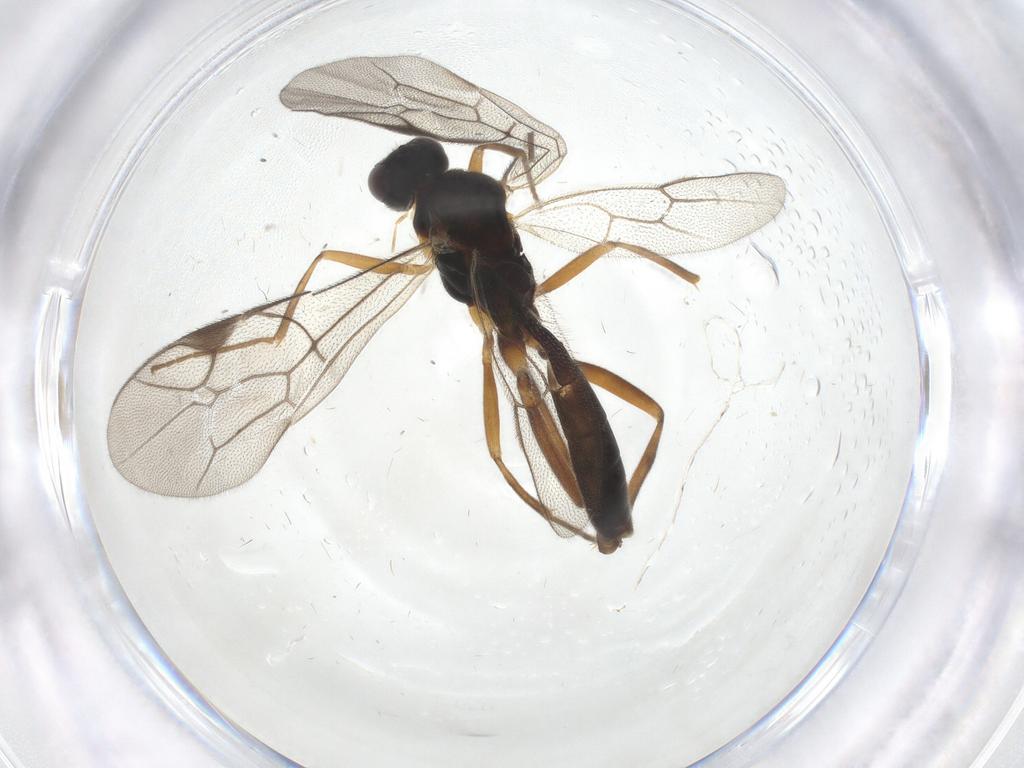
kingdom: Animalia
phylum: Arthropoda
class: Insecta
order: Hymenoptera
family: Ichneumonidae
